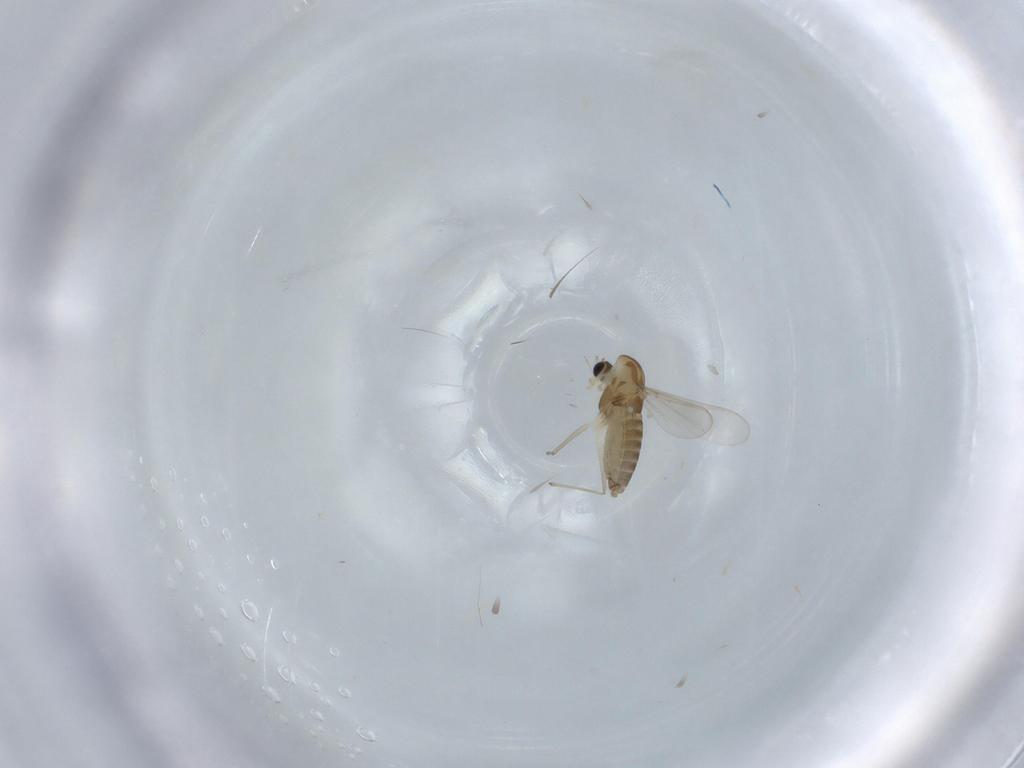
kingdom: Animalia
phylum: Arthropoda
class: Insecta
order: Diptera
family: Chironomidae
